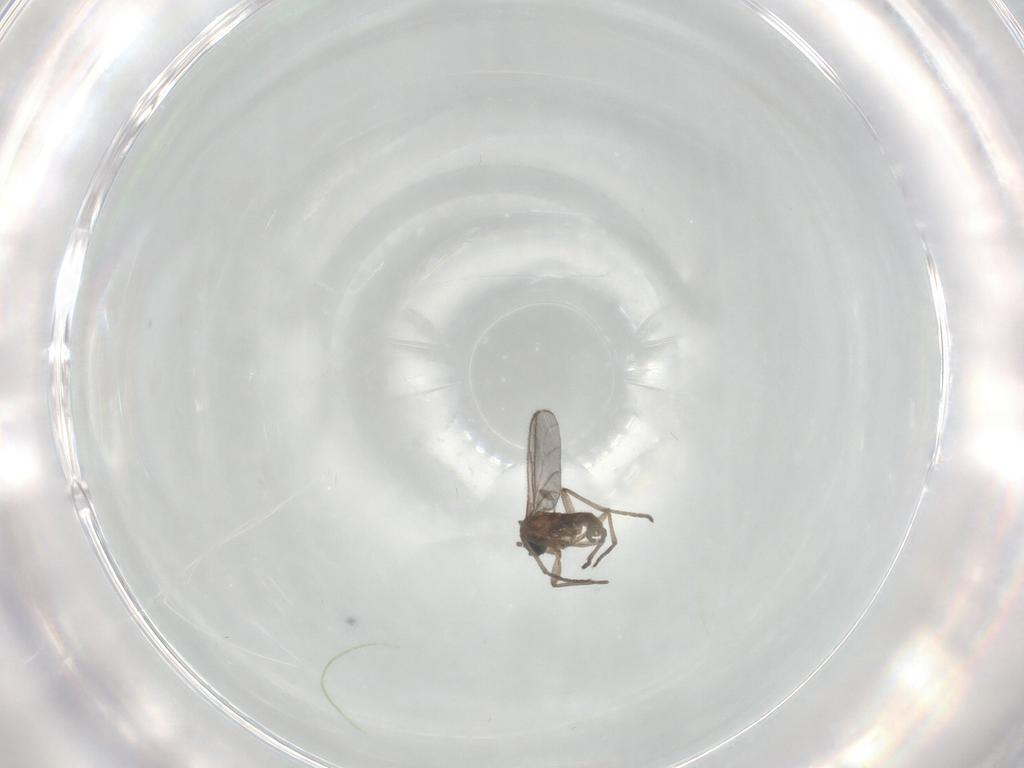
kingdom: Animalia
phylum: Arthropoda
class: Insecta
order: Diptera
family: Sciaridae
